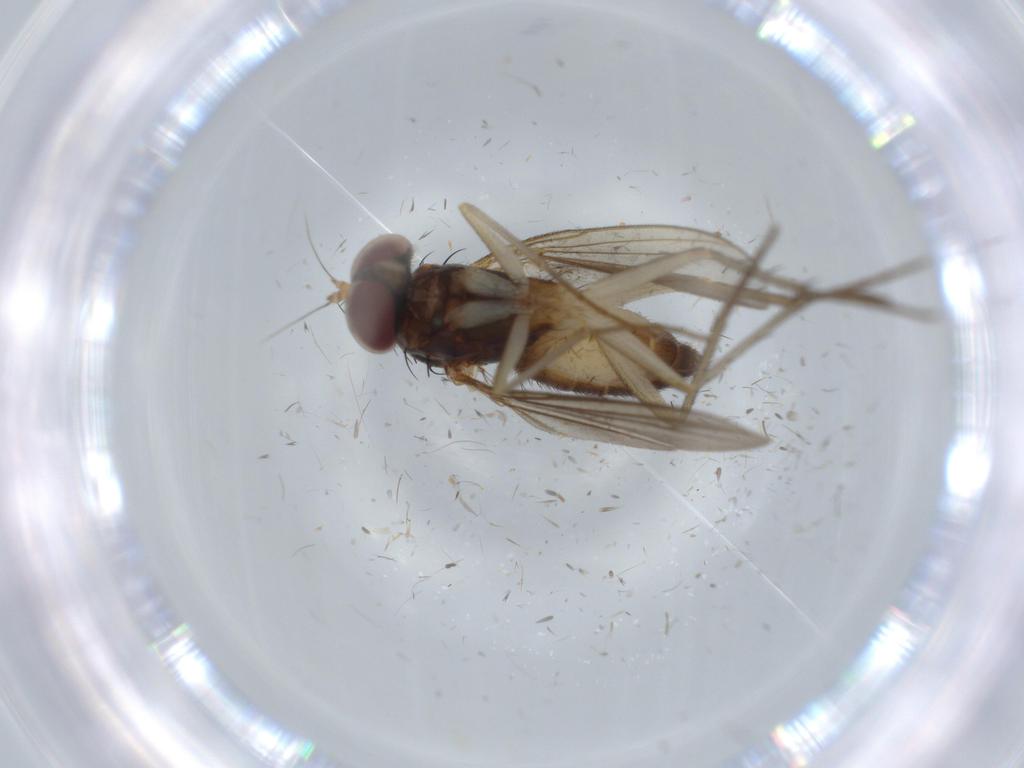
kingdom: Animalia
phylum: Arthropoda
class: Insecta
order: Diptera
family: Dolichopodidae
